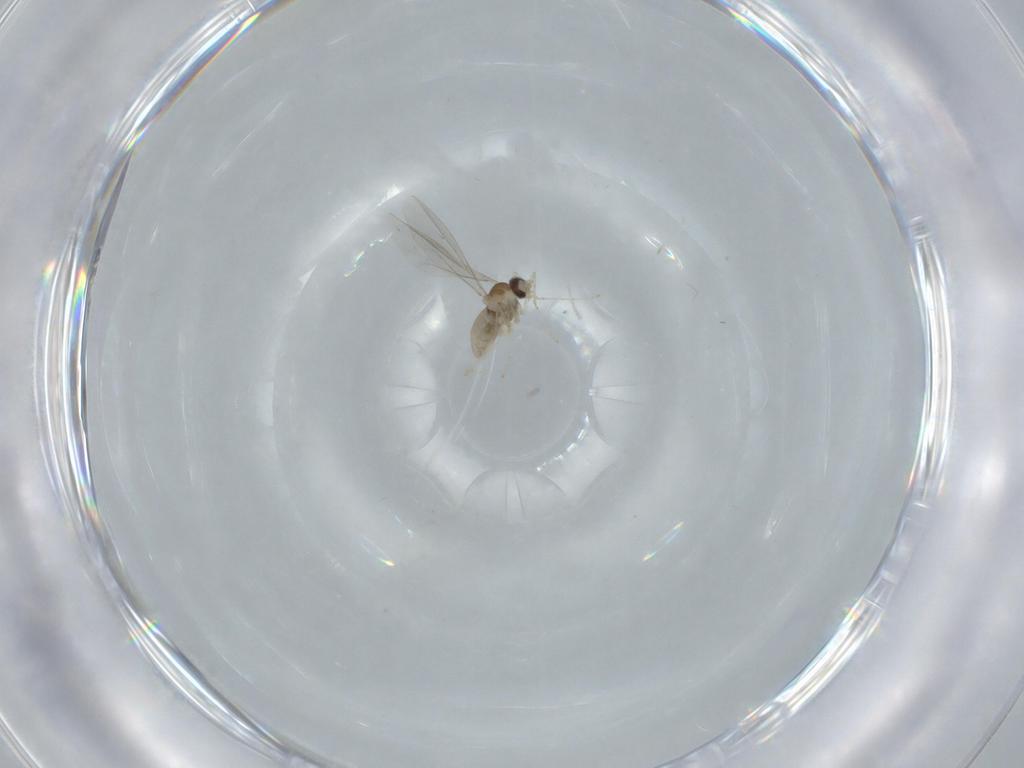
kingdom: Animalia
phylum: Arthropoda
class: Insecta
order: Diptera
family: Cecidomyiidae
